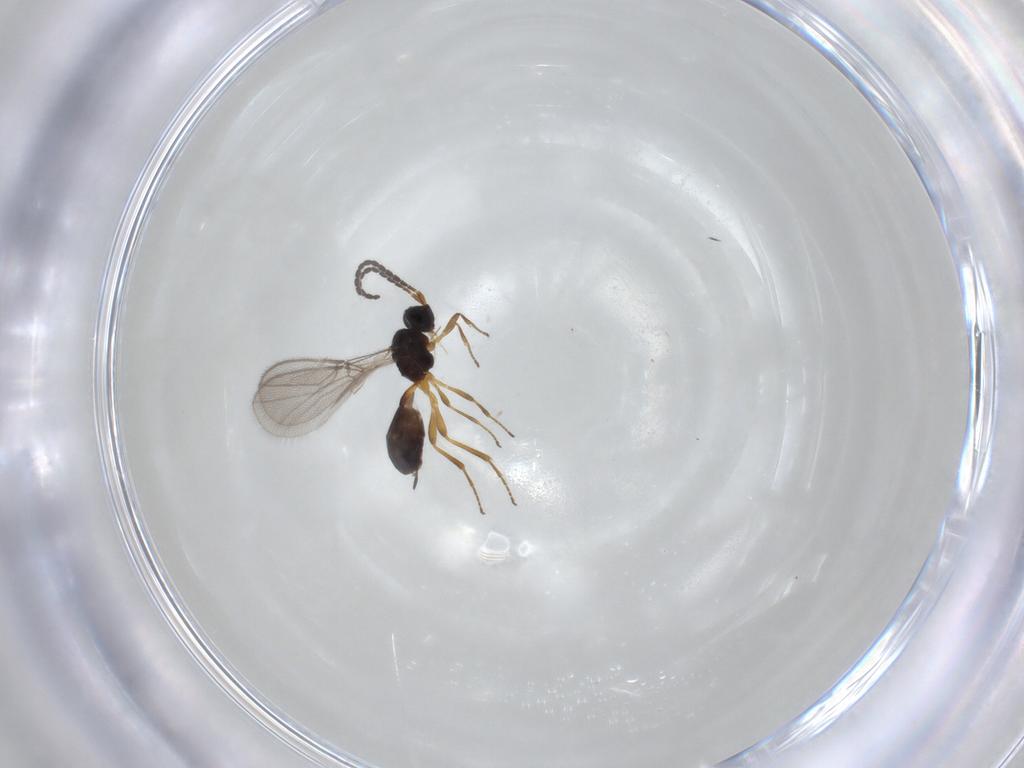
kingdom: Animalia
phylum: Arthropoda
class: Insecta
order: Hymenoptera
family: Braconidae
